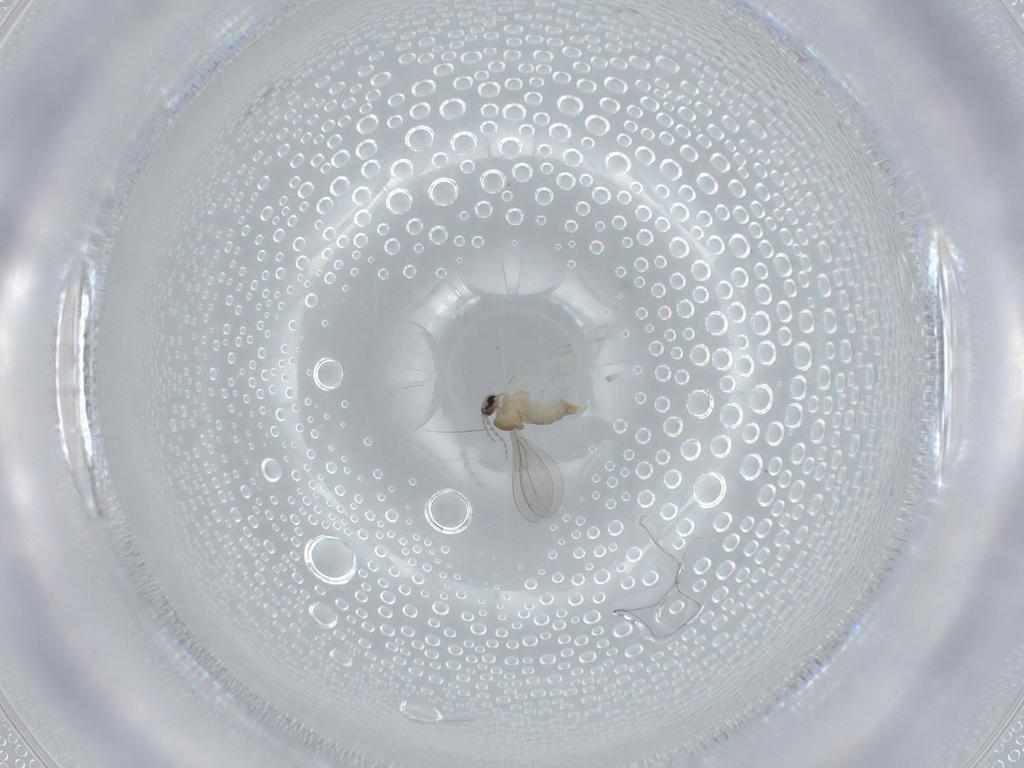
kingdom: Animalia
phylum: Arthropoda
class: Insecta
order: Diptera
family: Cecidomyiidae
